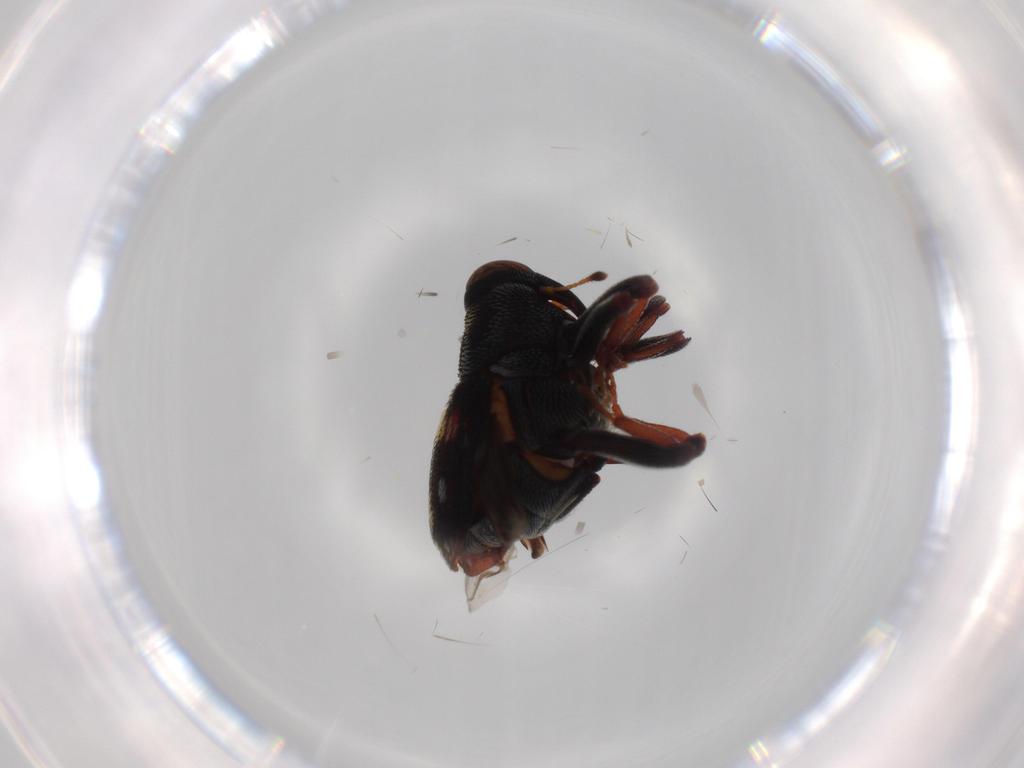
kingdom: Animalia
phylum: Arthropoda
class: Insecta
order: Coleoptera
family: Curculionidae
